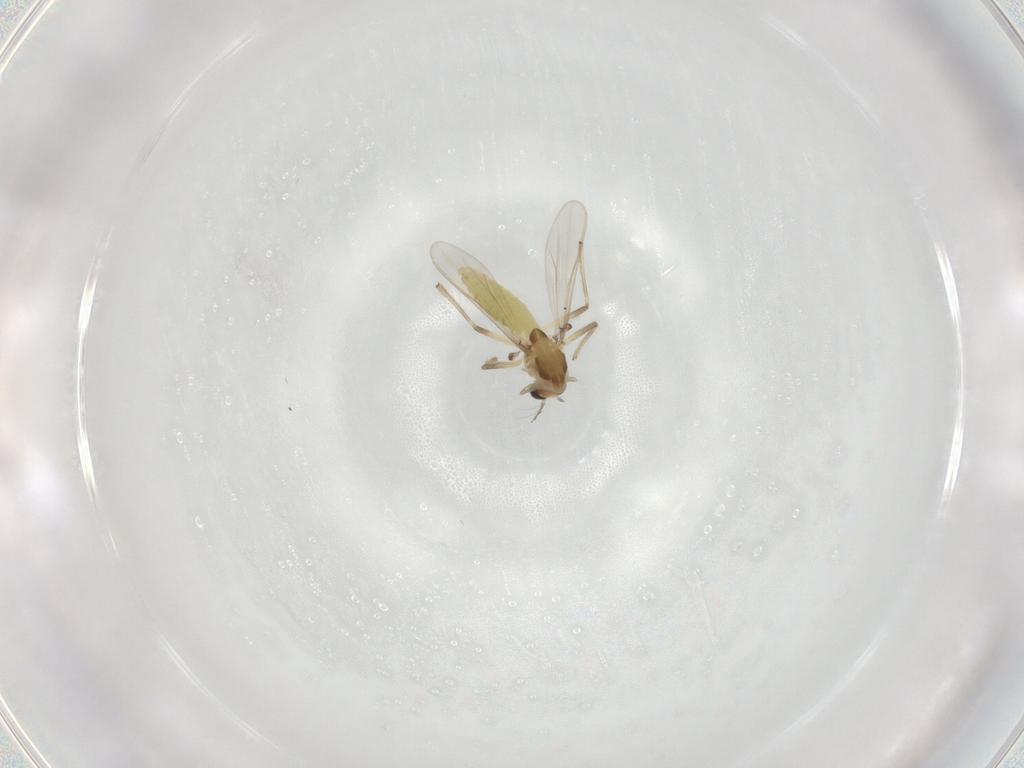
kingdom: Animalia
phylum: Arthropoda
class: Insecta
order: Diptera
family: Chironomidae
